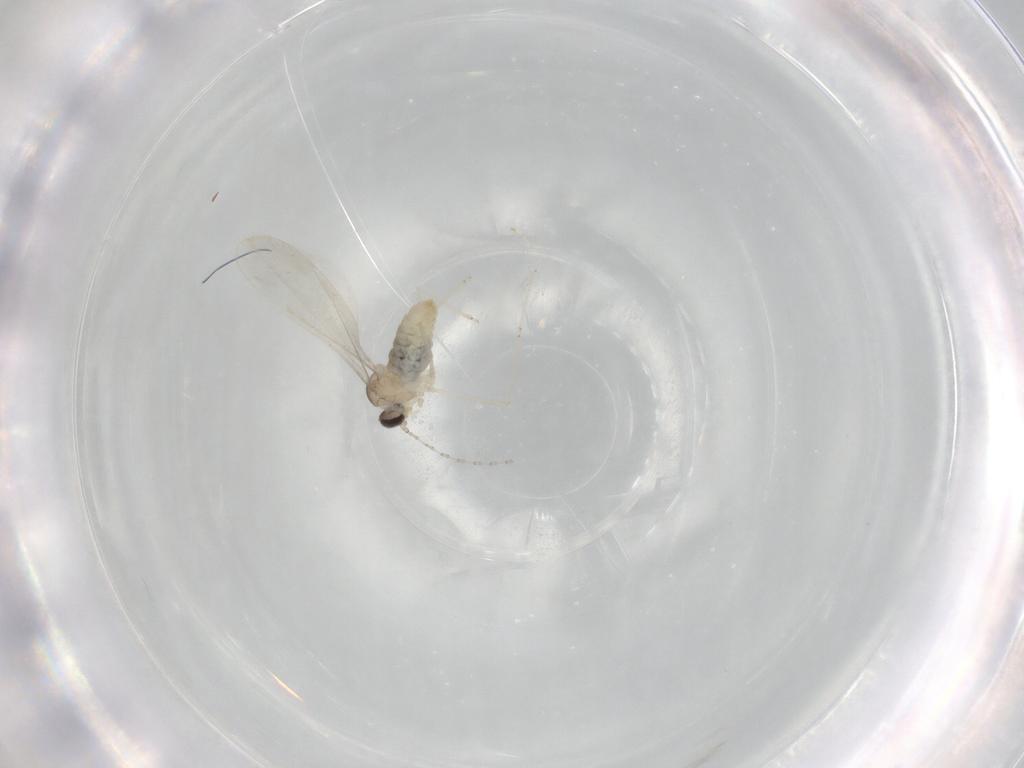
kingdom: Animalia
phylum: Arthropoda
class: Insecta
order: Diptera
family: Cecidomyiidae
